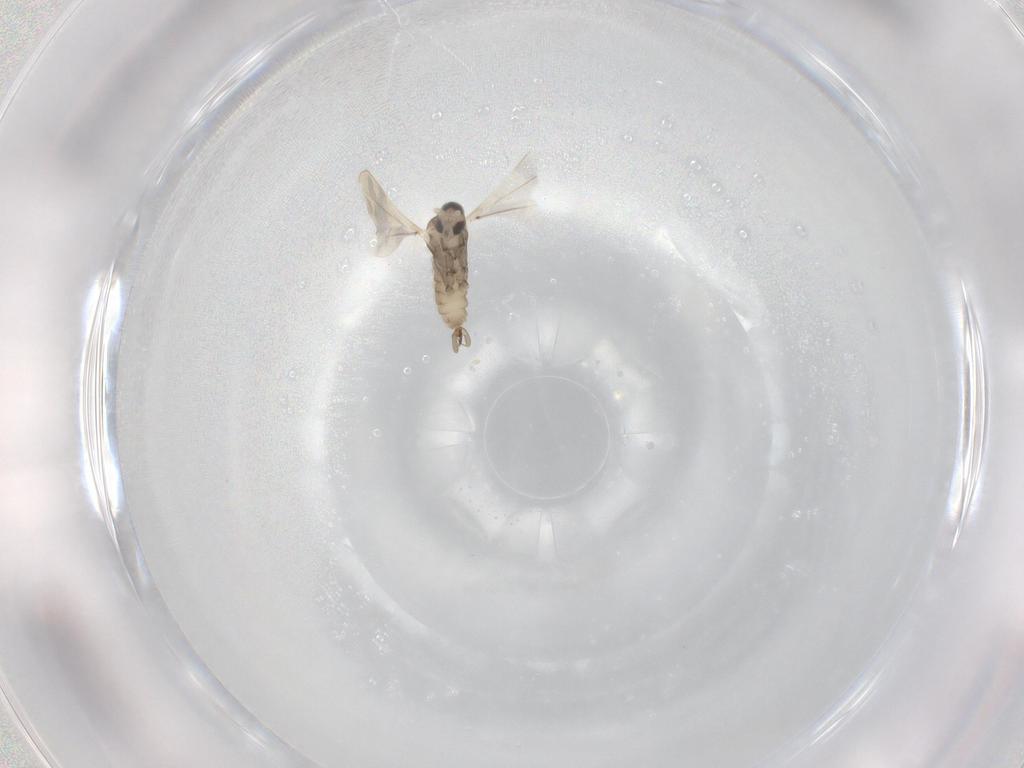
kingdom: Animalia
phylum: Arthropoda
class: Insecta
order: Diptera
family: Cecidomyiidae
